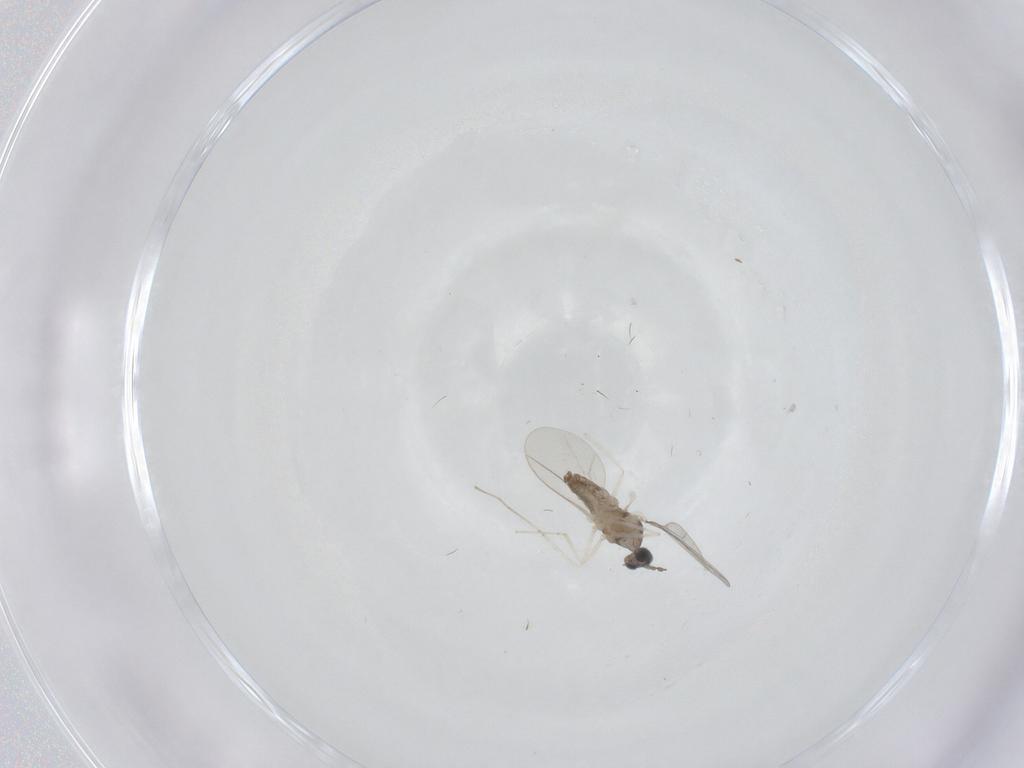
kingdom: Animalia
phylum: Arthropoda
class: Insecta
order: Diptera
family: Cecidomyiidae
